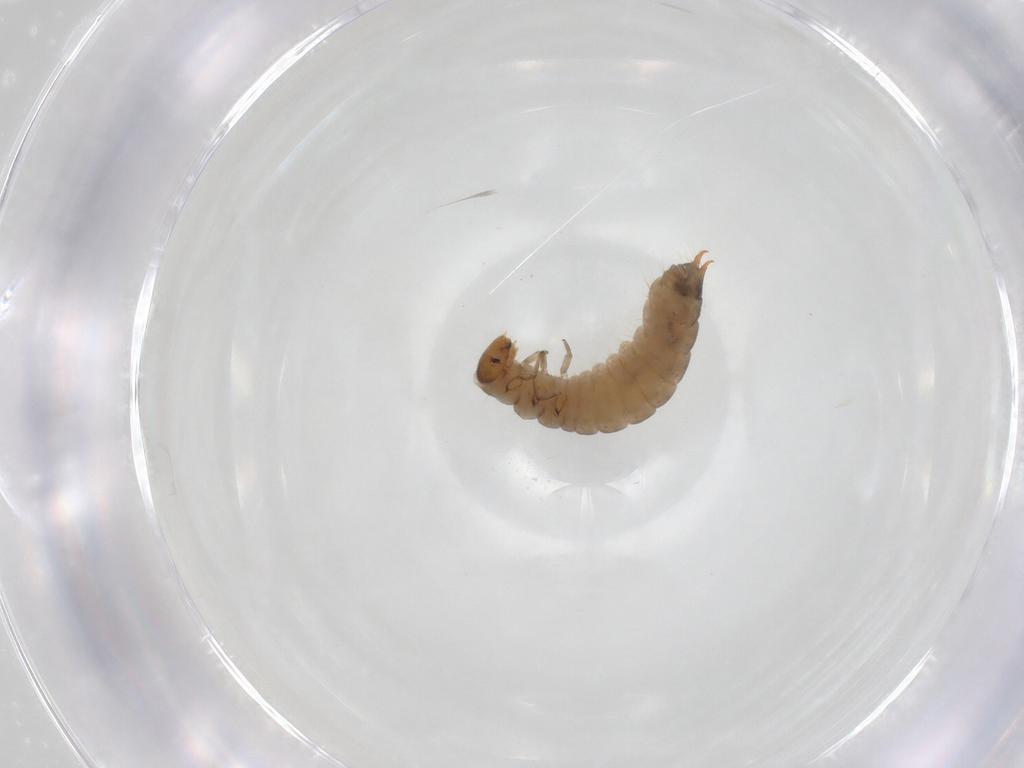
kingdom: Animalia
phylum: Arthropoda
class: Insecta
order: Coleoptera
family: Melyridae
